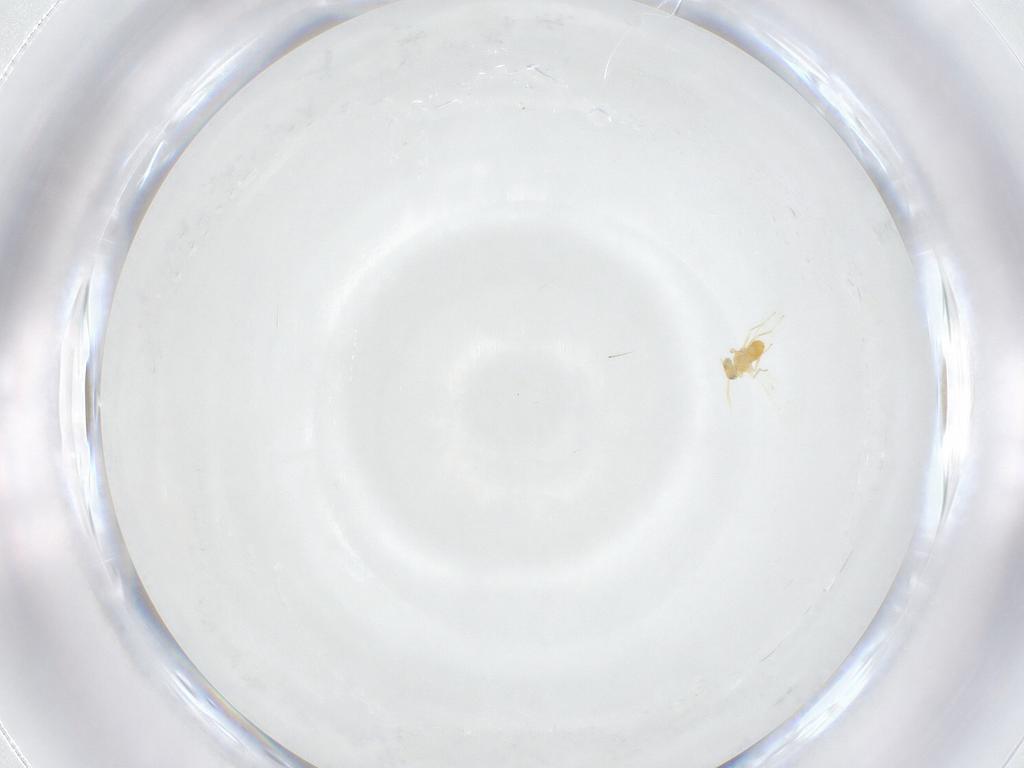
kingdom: Animalia
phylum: Arthropoda
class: Insecta
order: Hymenoptera
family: Aphelinidae
